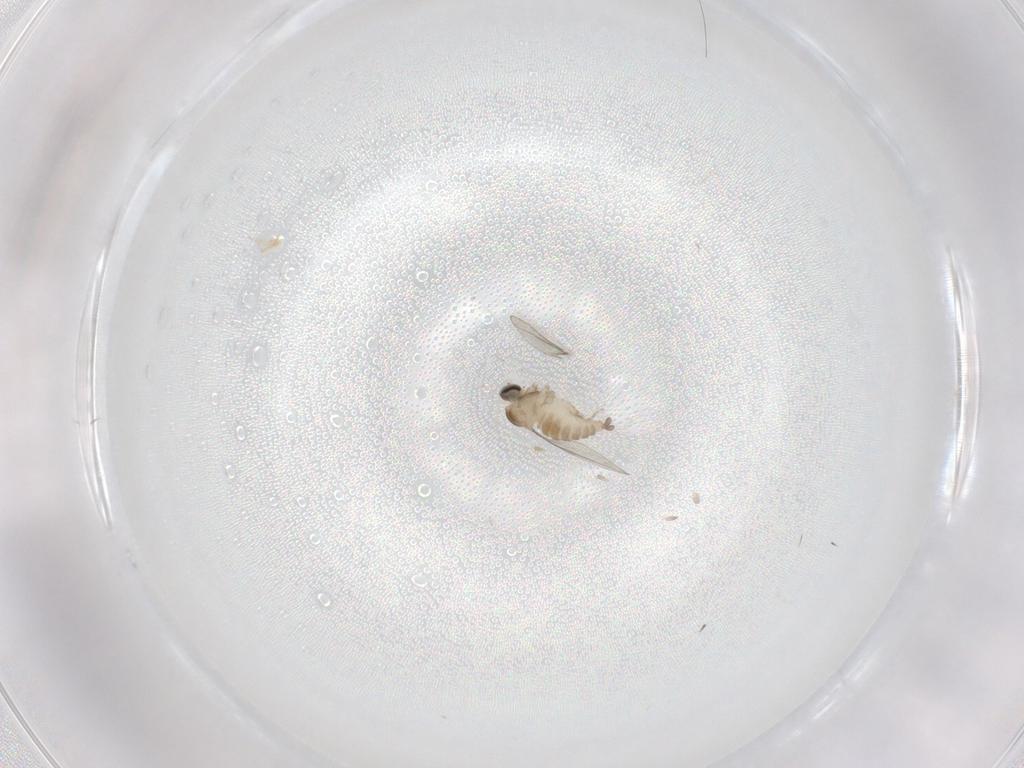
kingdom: Animalia
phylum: Arthropoda
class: Insecta
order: Diptera
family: Cecidomyiidae
